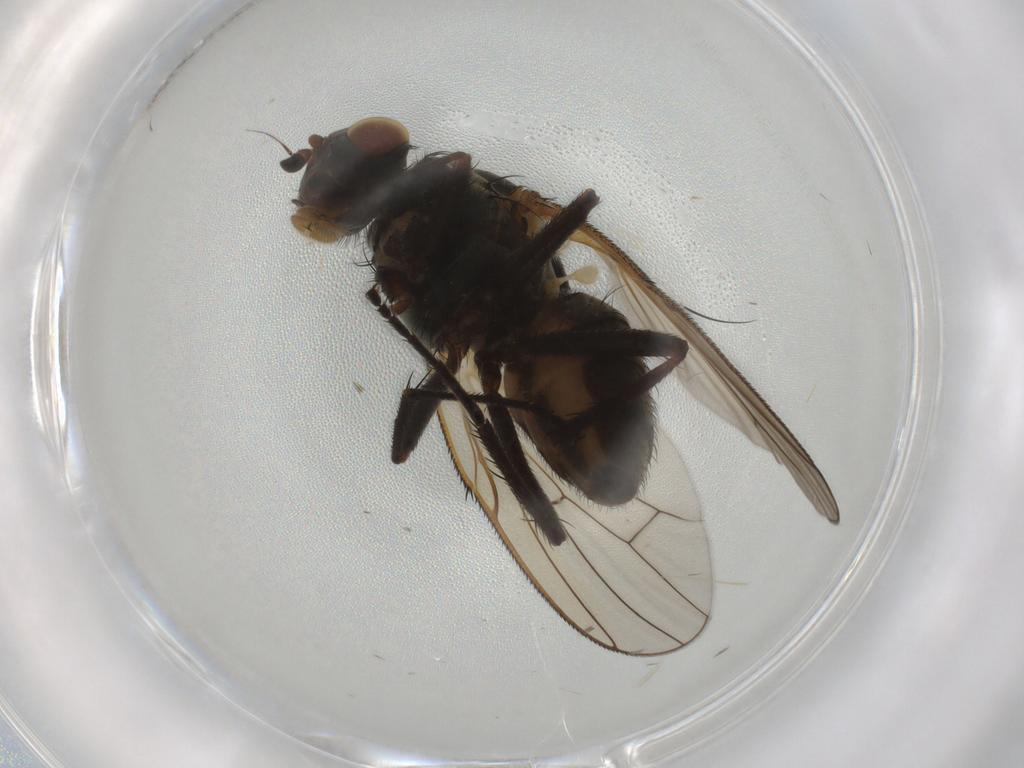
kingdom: Animalia
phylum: Arthropoda
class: Insecta
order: Diptera
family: Anthomyiidae
